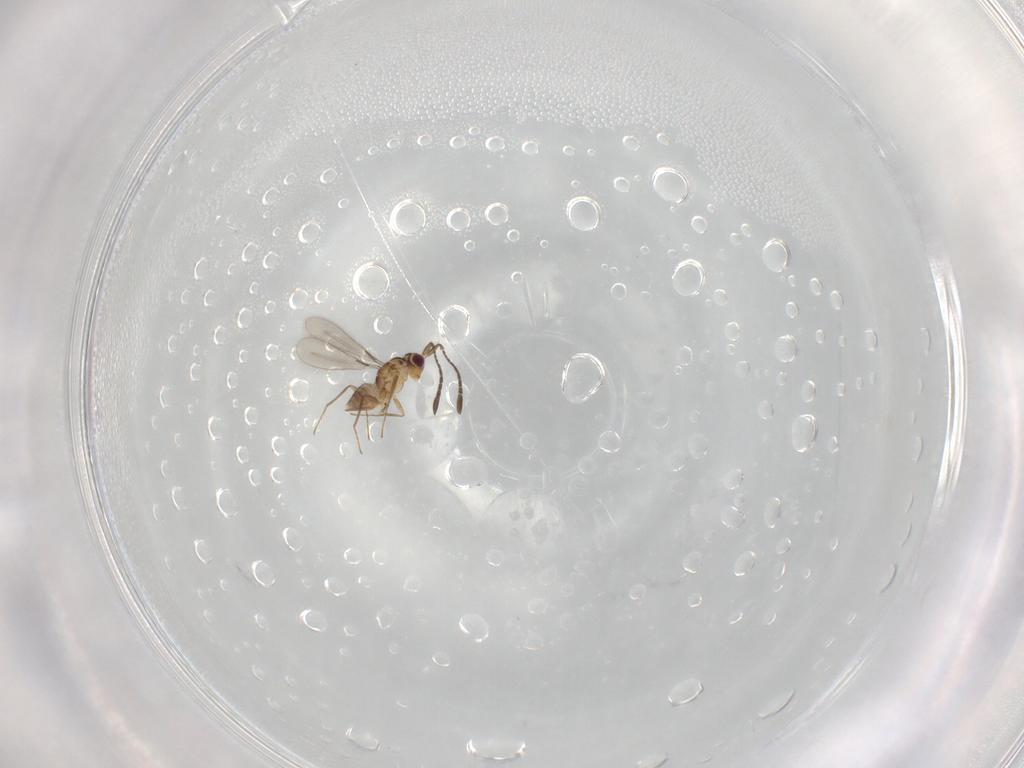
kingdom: Animalia
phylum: Arthropoda
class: Insecta
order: Hymenoptera
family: Mymaridae
